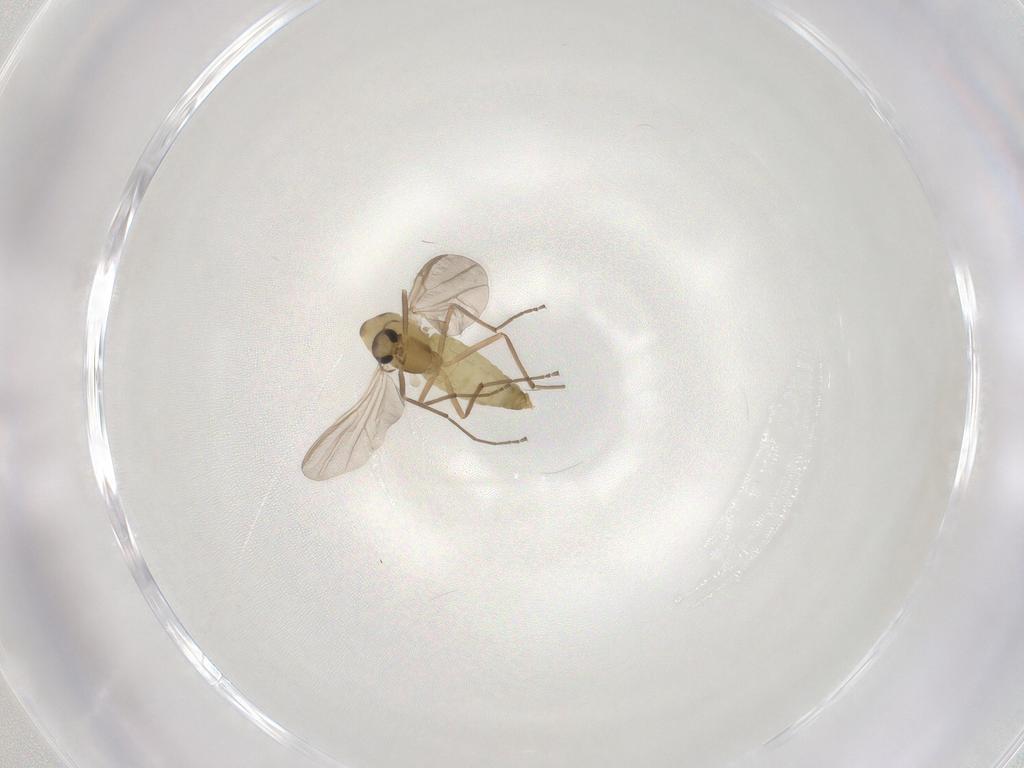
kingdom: Animalia
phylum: Arthropoda
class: Insecta
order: Diptera
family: Chironomidae
